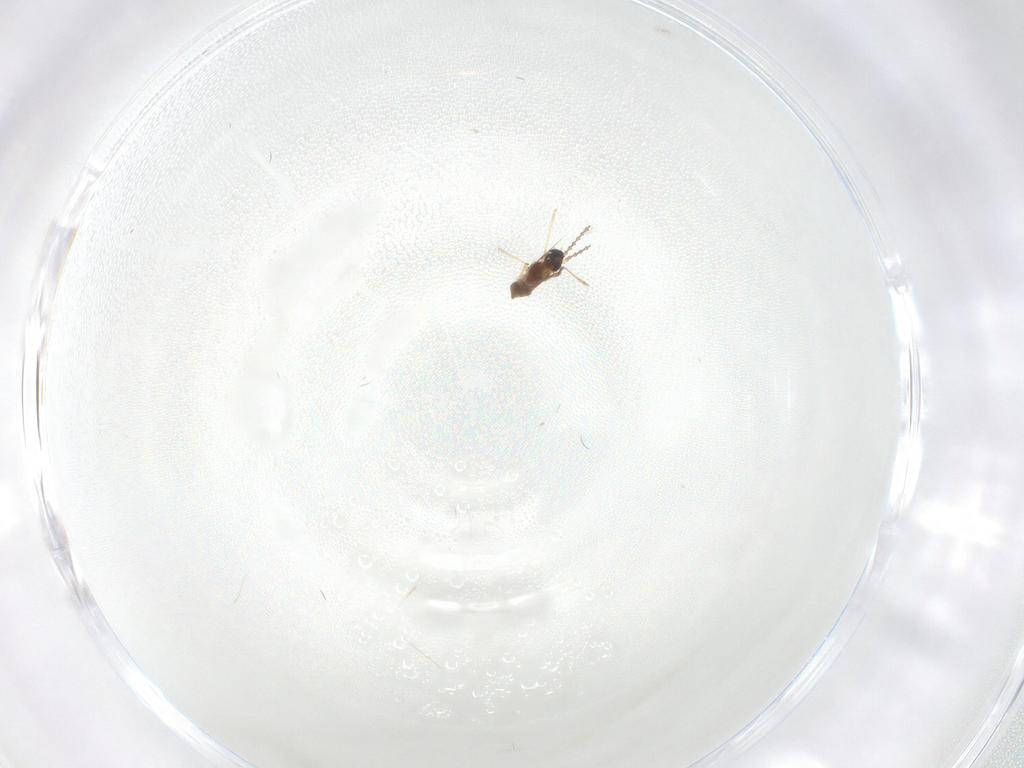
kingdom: Animalia
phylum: Arthropoda
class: Insecta
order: Diptera
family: Ceratopogonidae
